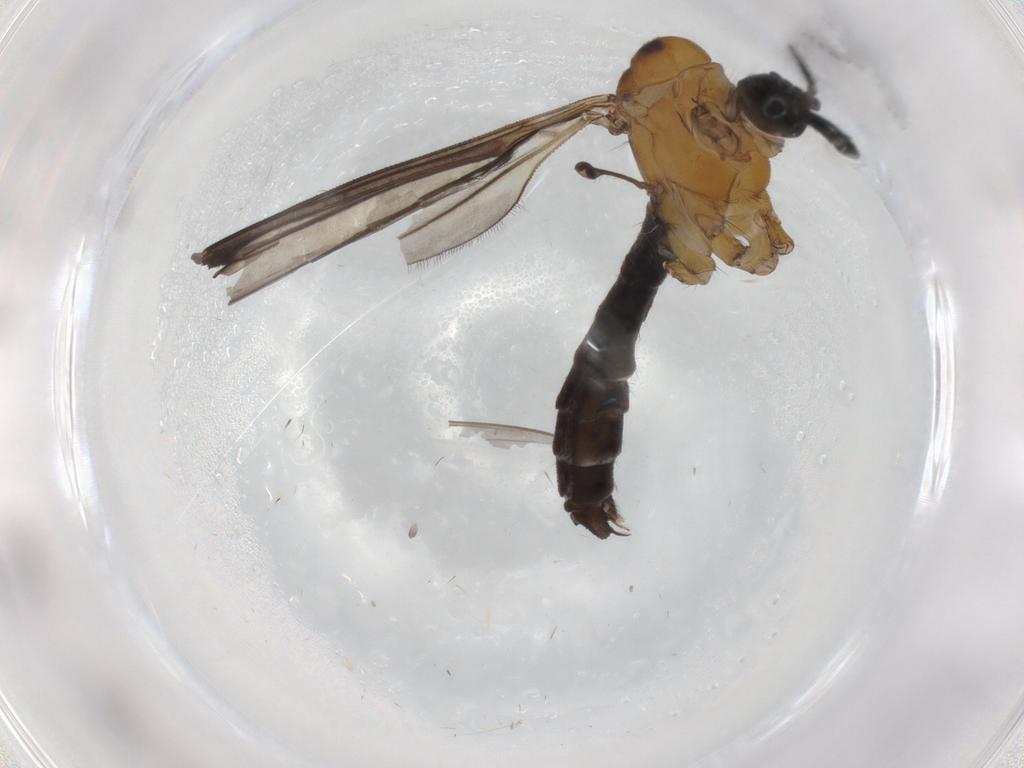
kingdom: Animalia
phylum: Arthropoda
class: Insecta
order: Diptera
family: Limoniidae
